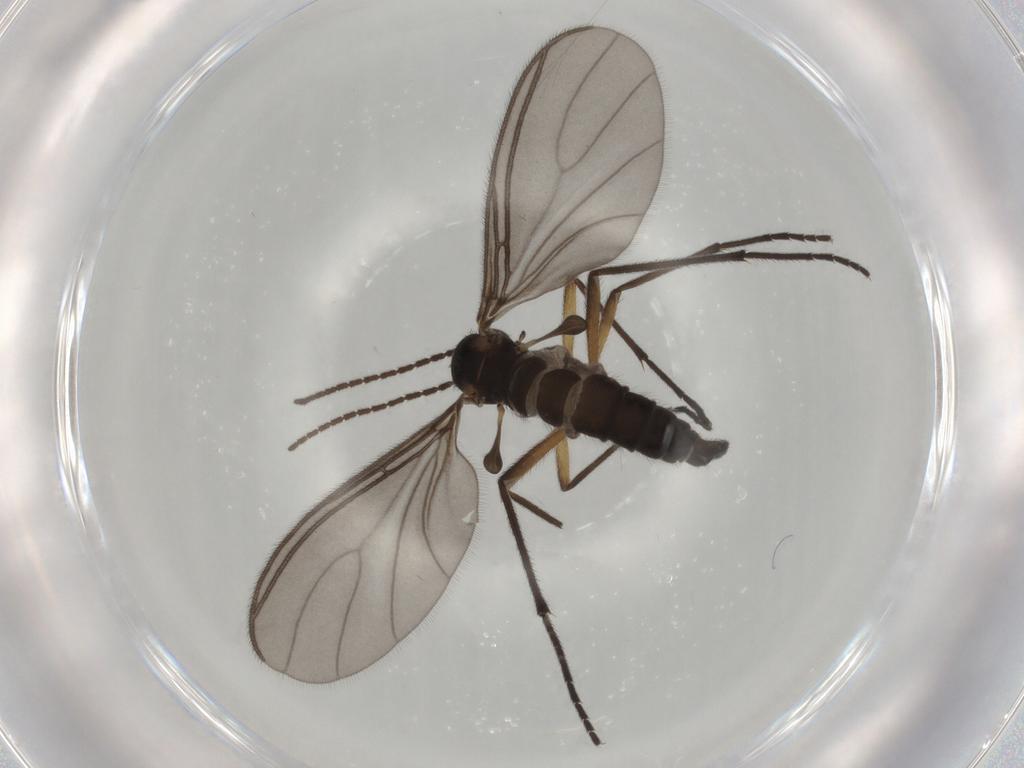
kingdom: Animalia
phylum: Arthropoda
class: Insecta
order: Diptera
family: Sciaridae
